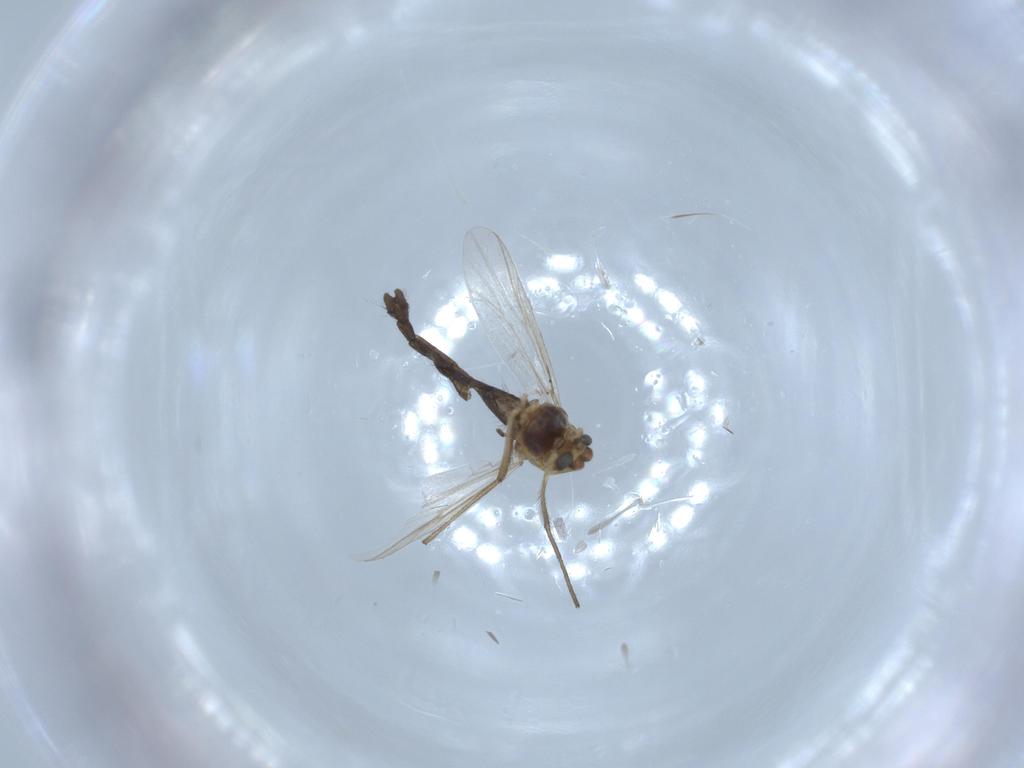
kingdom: Animalia
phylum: Arthropoda
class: Insecta
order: Diptera
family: Chironomidae
